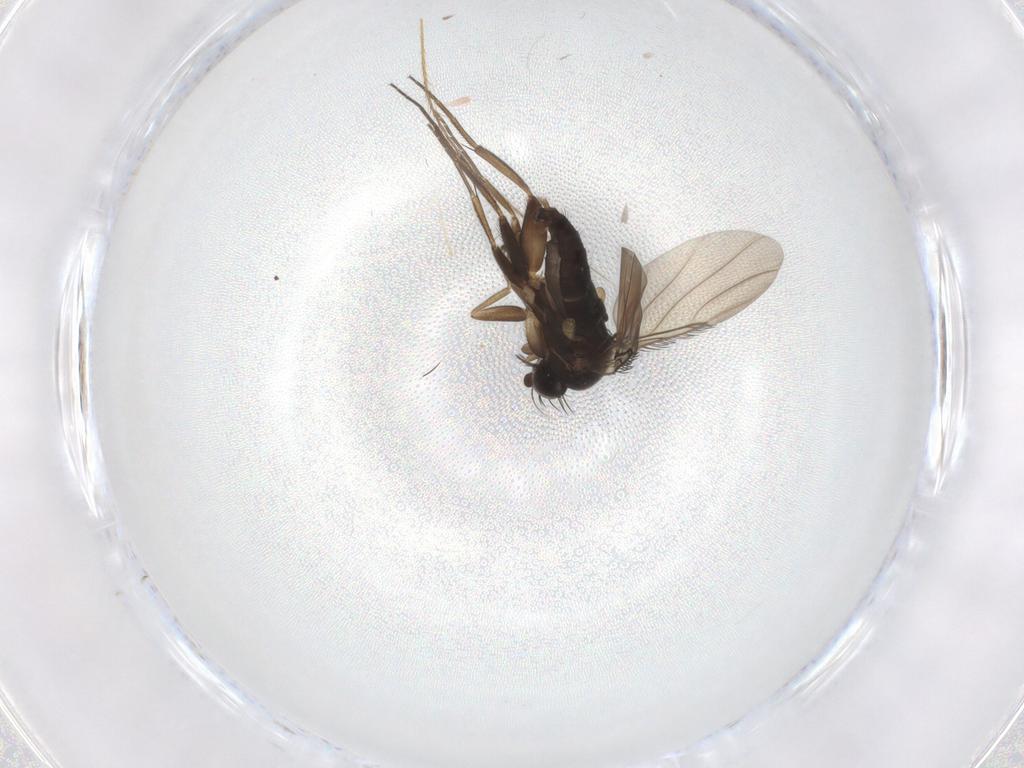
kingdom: Animalia
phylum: Arthropoda
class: Insecta
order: Diptera
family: Phoridae
